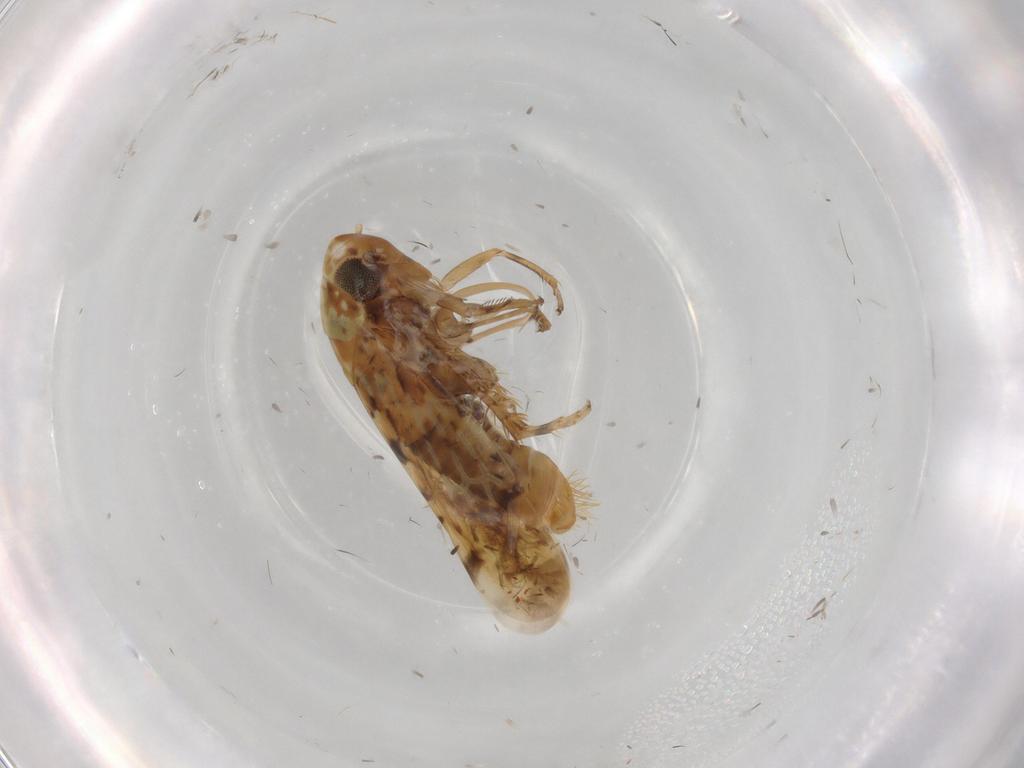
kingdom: Animalia
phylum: Arthropoda
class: Insecta
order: Hemiptera
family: Cicadellidae
